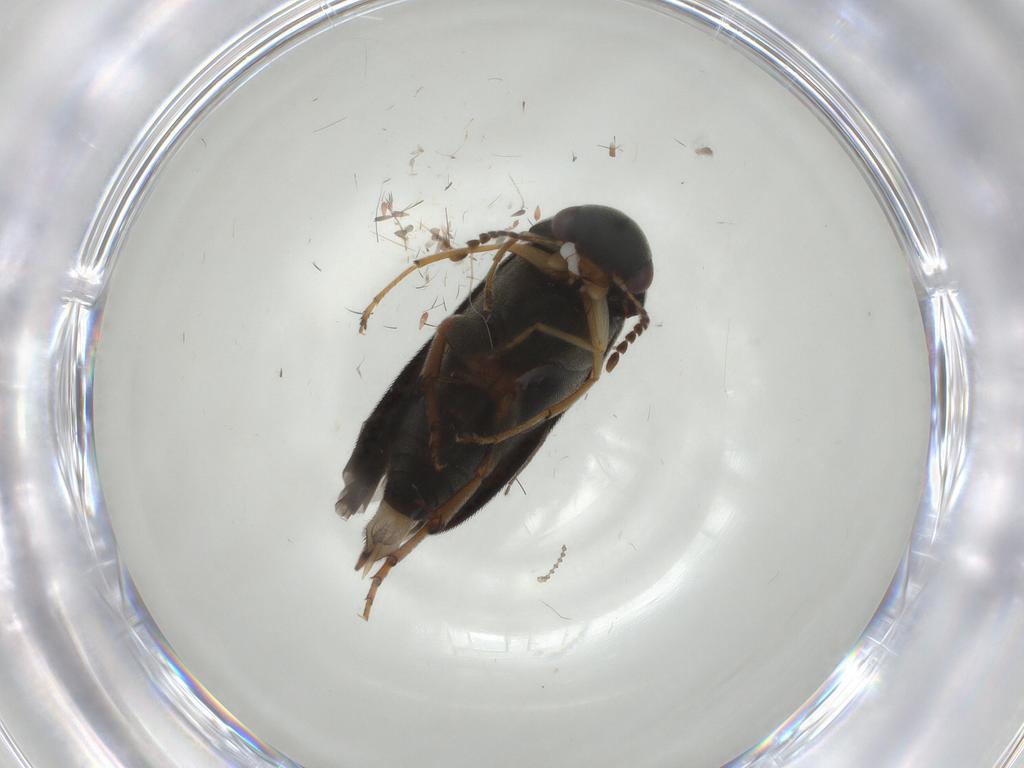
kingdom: Animalia
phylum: Arthropoda
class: Insecta
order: Coleoptera
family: Mordellidae
